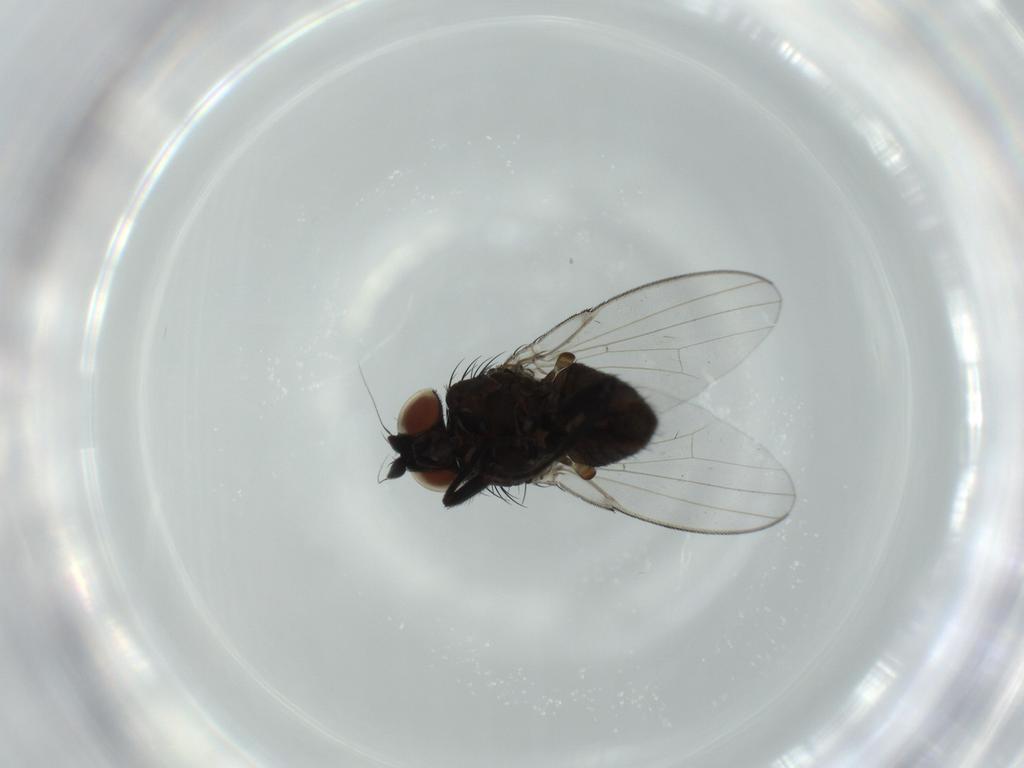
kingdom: Animalia
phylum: Arthropoda
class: Insecta
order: Diptera
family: Milichiidae
